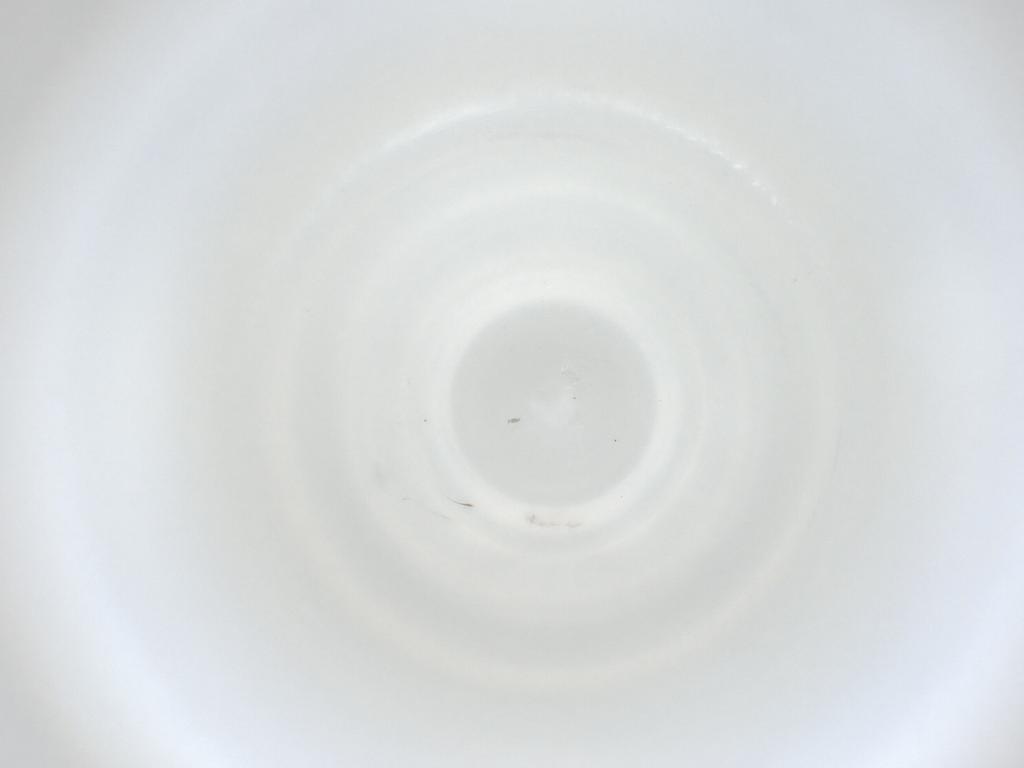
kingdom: Animalia
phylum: Arthropoda
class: Insecta
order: Diptera
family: Cecidomyiidae
